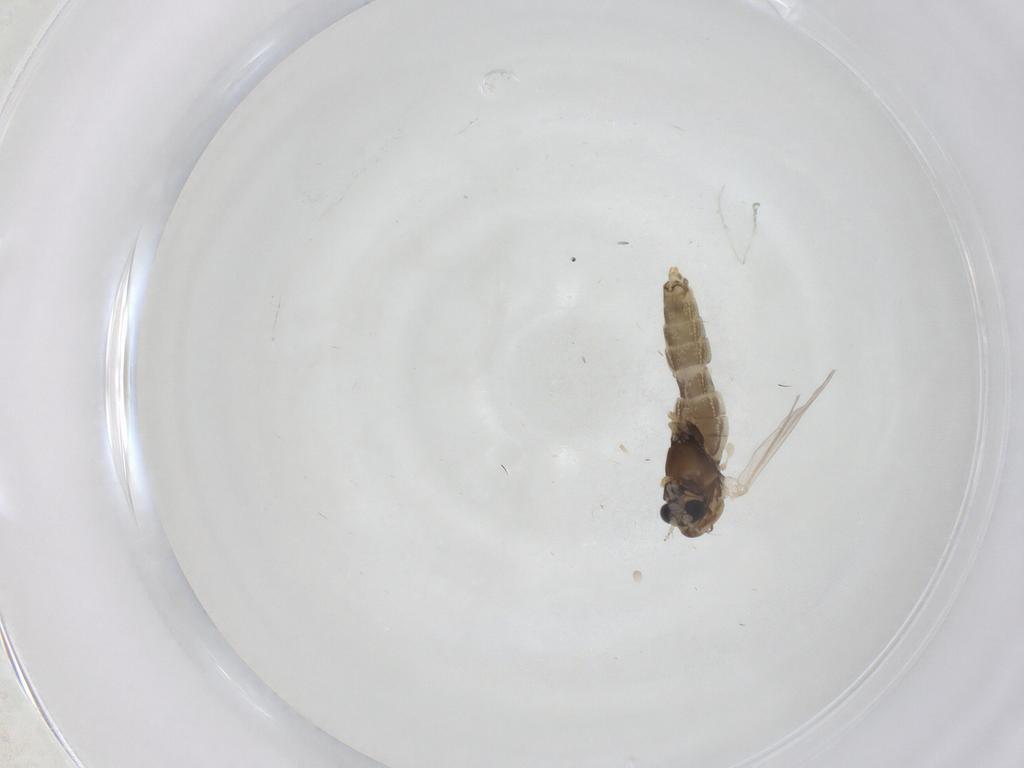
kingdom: Animalia
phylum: Arthropoda
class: Insecta
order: Diptera
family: Chironomidae
